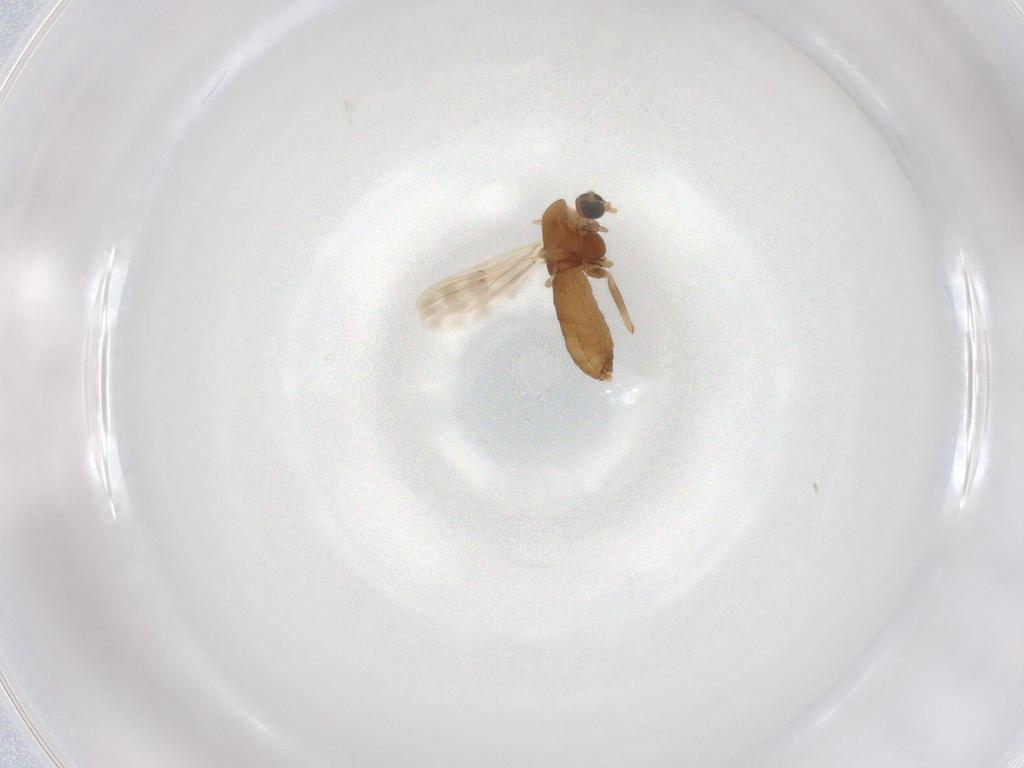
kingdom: Animalia
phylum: Arthropoda
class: Insecta
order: Diptera
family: Chironomidae
